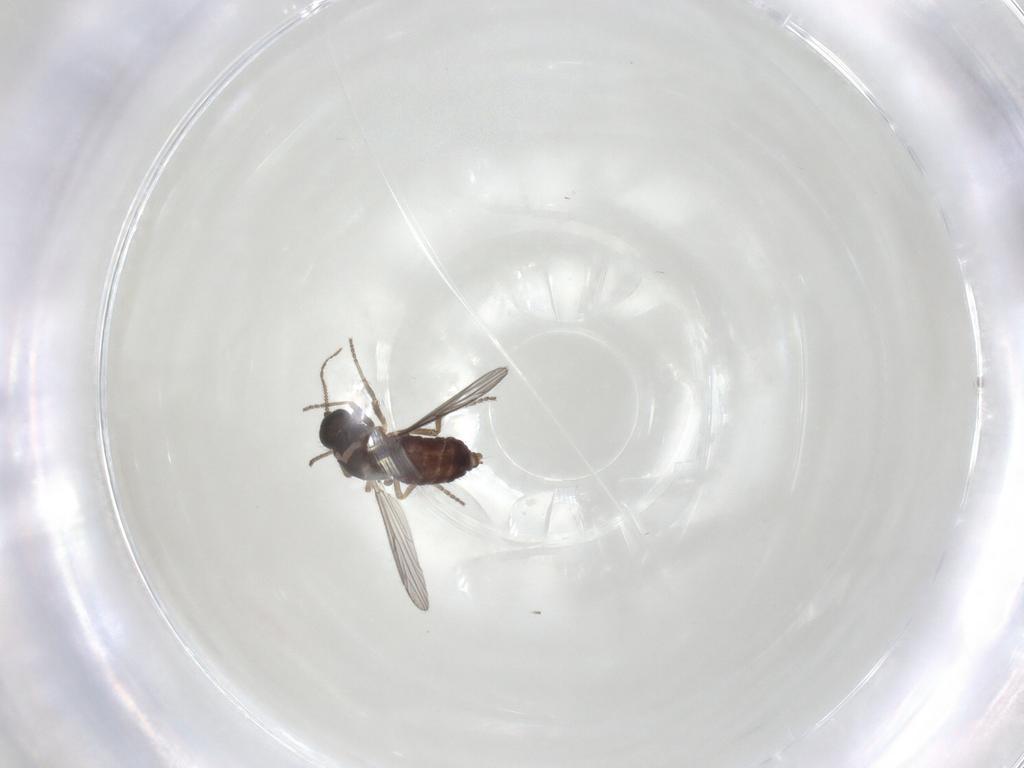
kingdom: Animalia
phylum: Arthropoda
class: Insecta
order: Diptera
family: Ceratopogonidae
